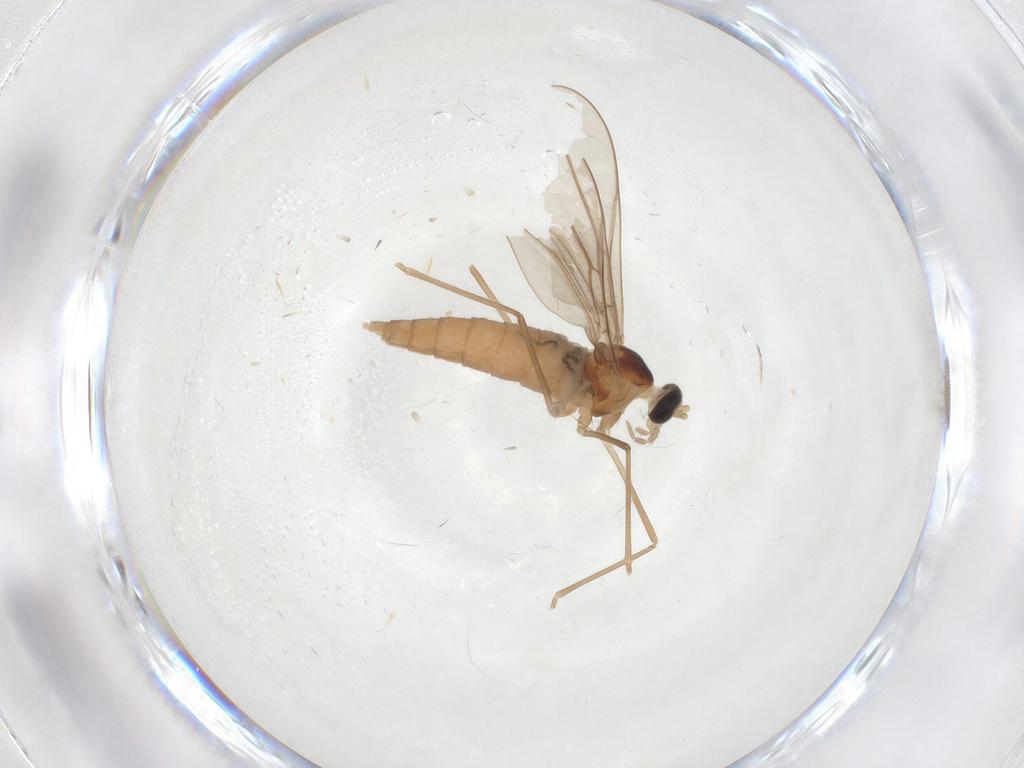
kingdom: Animalia
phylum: Arthropoda
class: Insecta
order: Diptera
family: Cecidomyiidae
